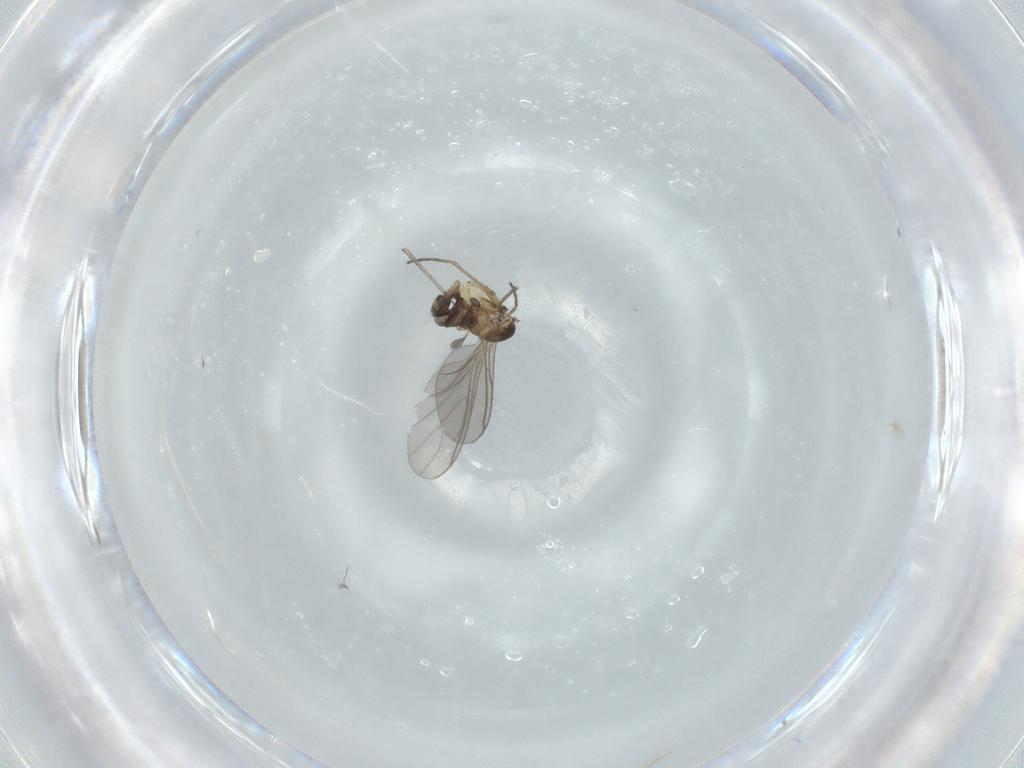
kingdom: Animalia
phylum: Arthropoda
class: Insecta
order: Diptera
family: Sciaridae
